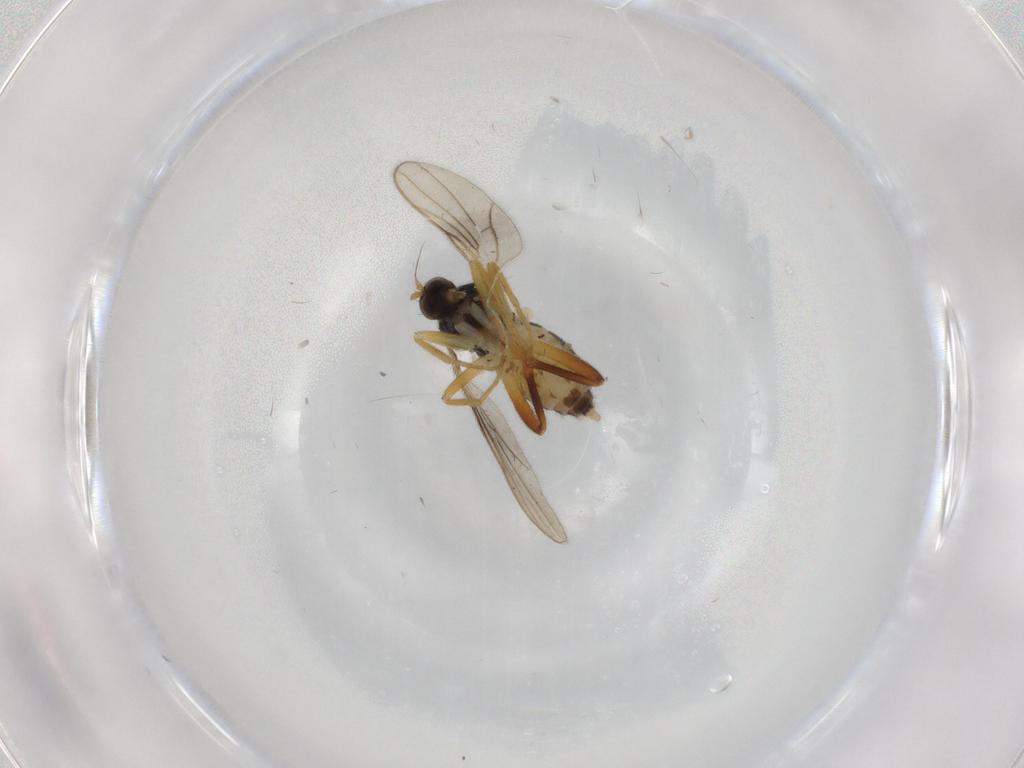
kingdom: Animalia
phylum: Arthropoda
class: Insecta
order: Diptera
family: Hybotidae
